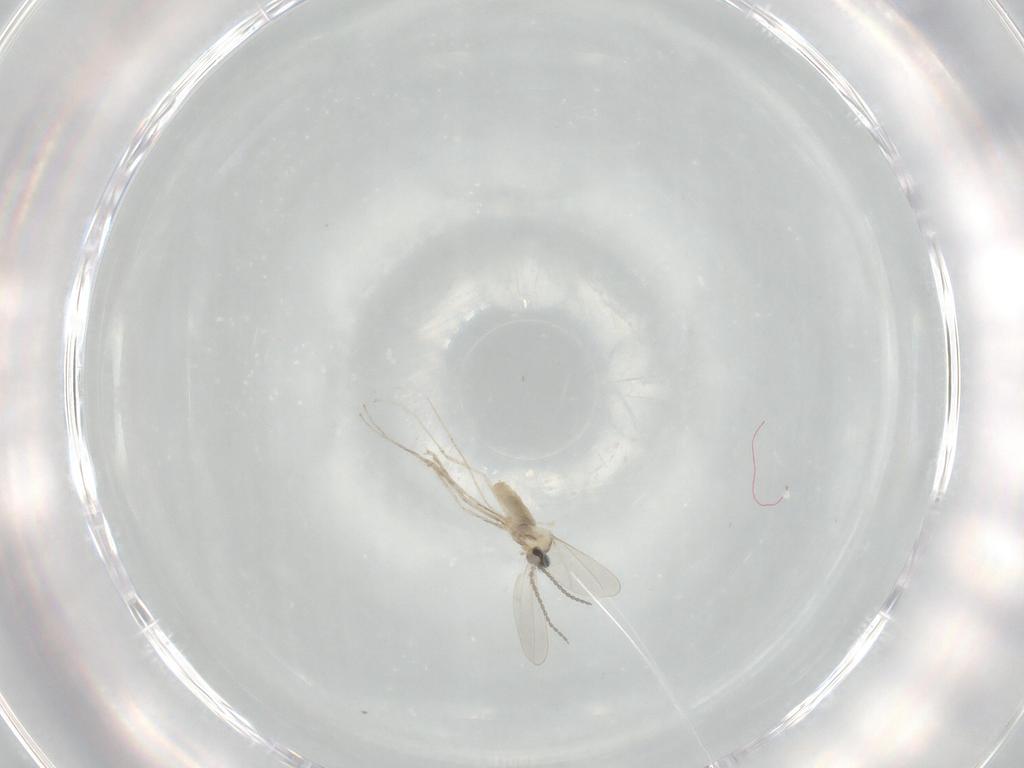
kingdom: Animalia
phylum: Arthropoda
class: Insecta
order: Diptera
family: Cecidomyiidae
